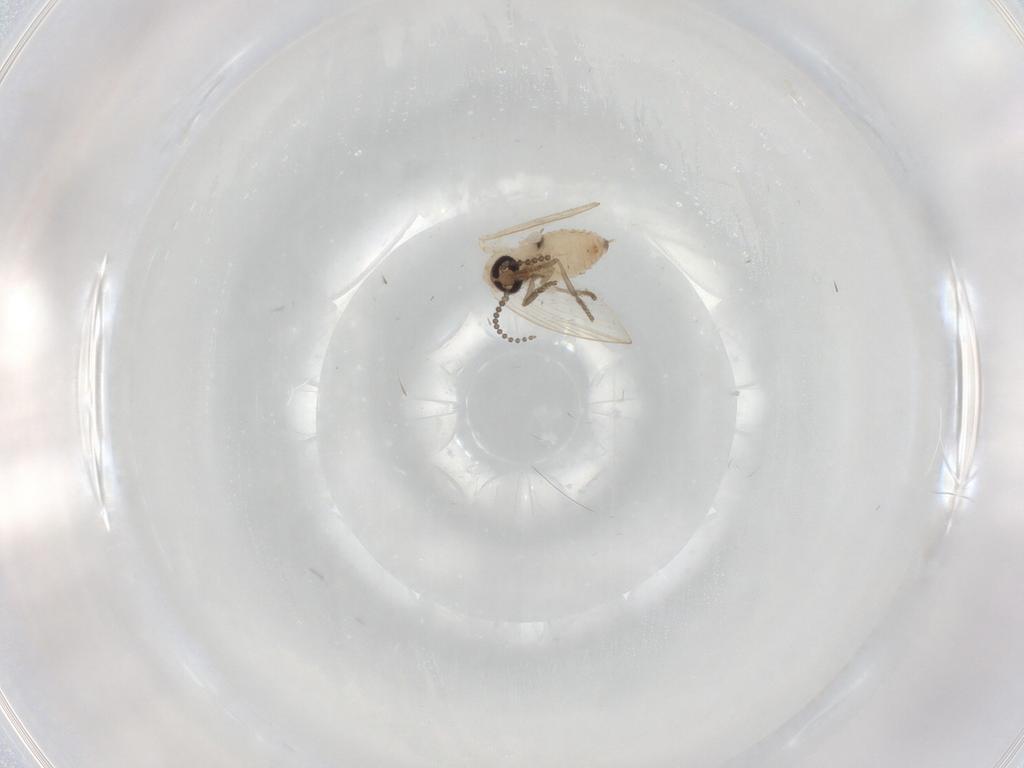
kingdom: Animalia
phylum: Arthropoda
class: Insecta
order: Diptera
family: Psychodidae
